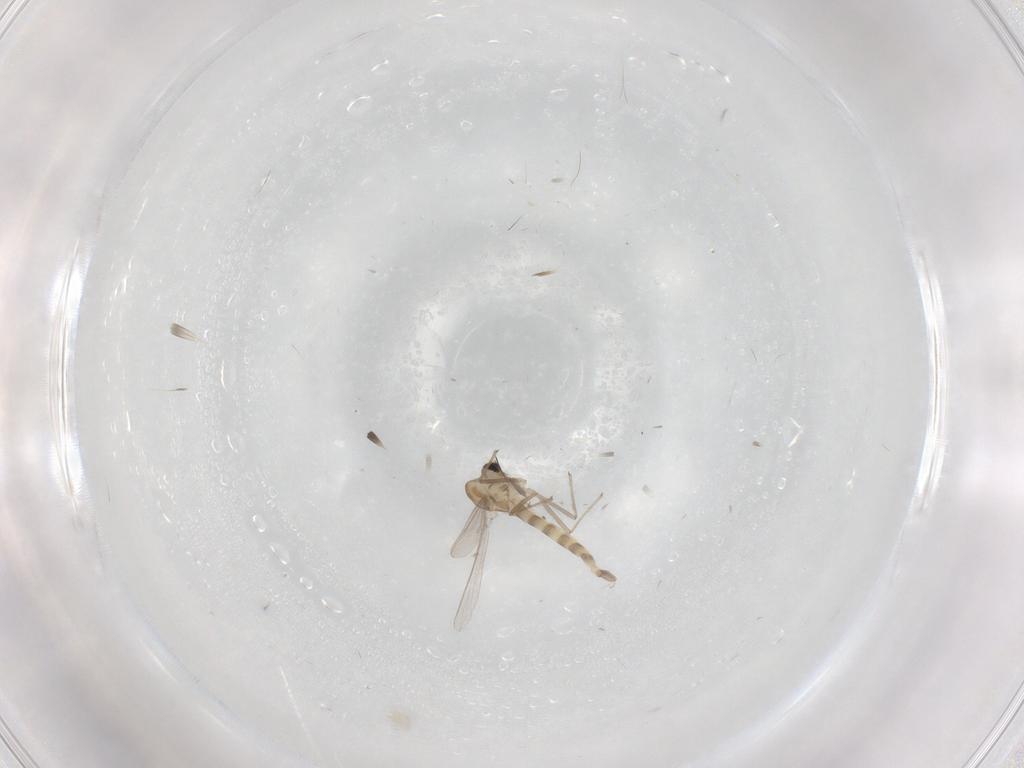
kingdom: Animalia
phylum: Arthropoda
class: Insecta
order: Diptera
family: Chironomidae
